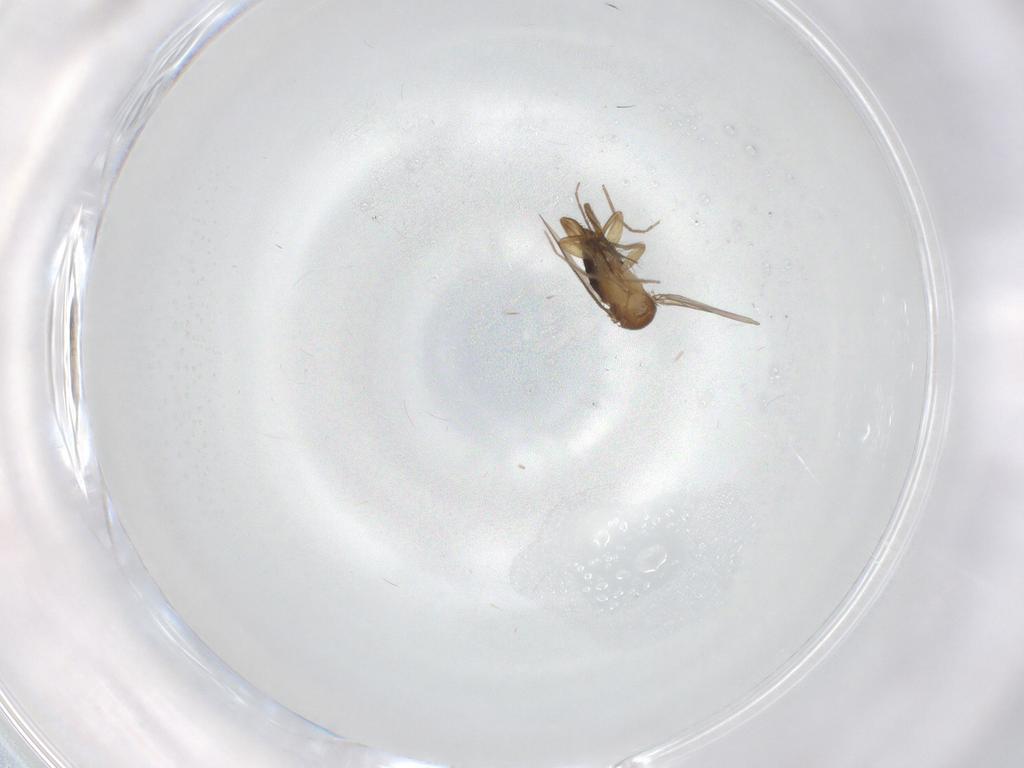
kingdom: Animalia
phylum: Arthropoda
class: Insecta
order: Diptera
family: Phoridae
